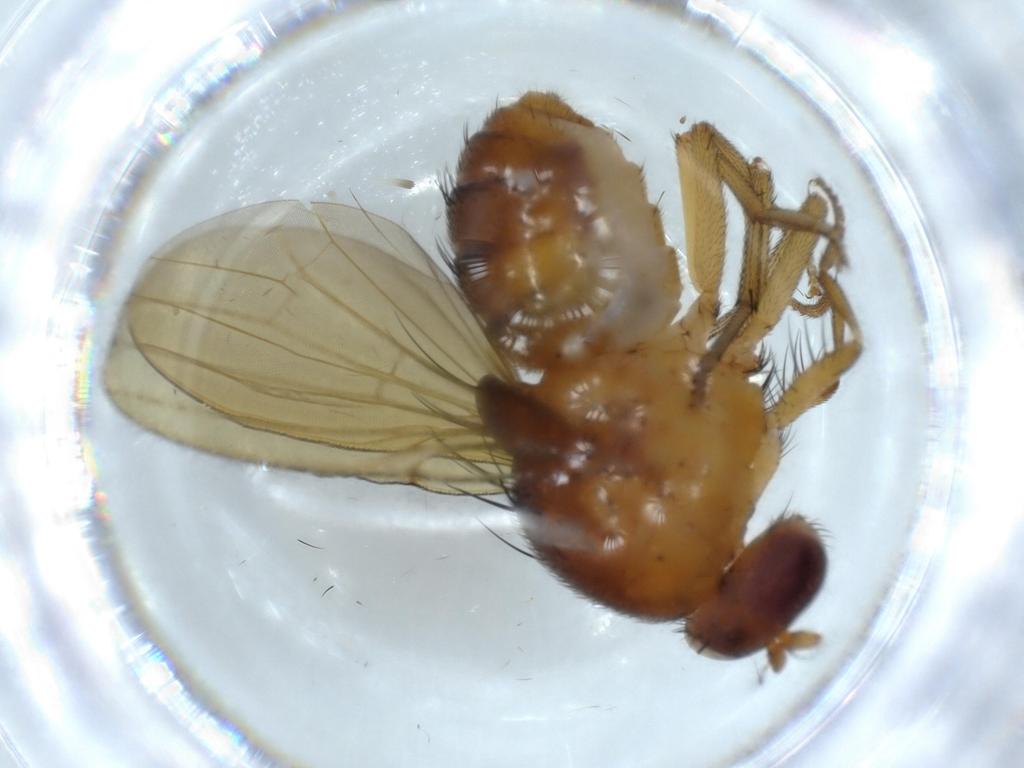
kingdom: Animalia
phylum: Arthropoda
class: Insecta
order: Diptera
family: Lauxaniidae
